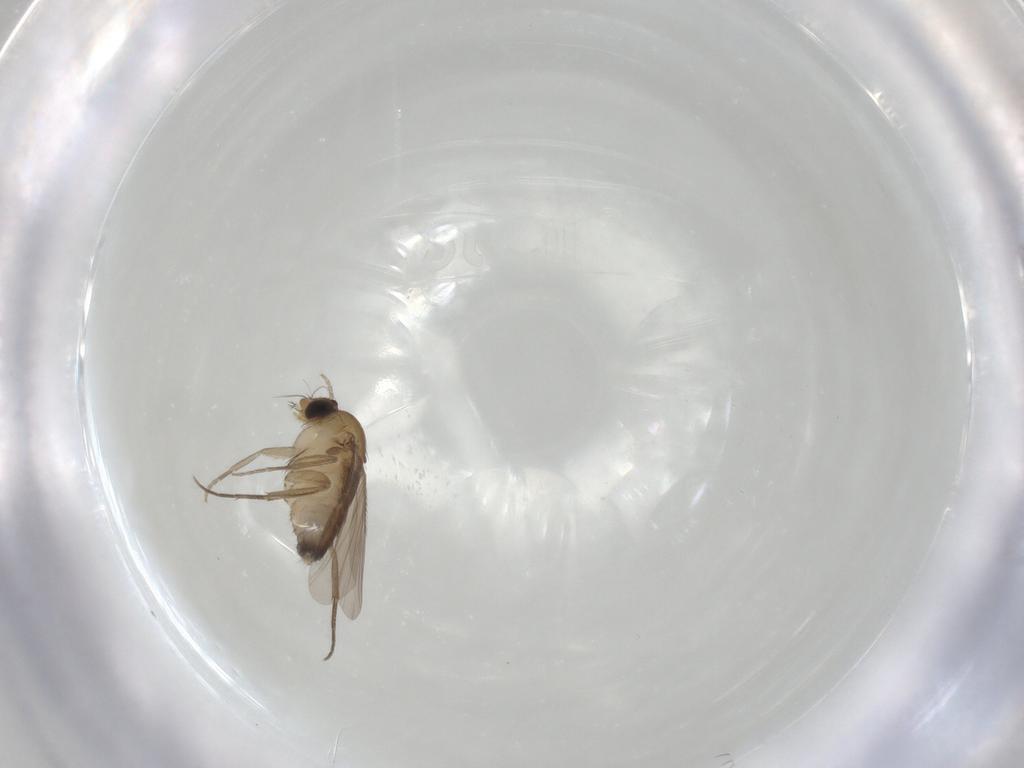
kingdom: Animalia
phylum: Arthropoda
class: Insecta
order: Diptera
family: Phoridae
